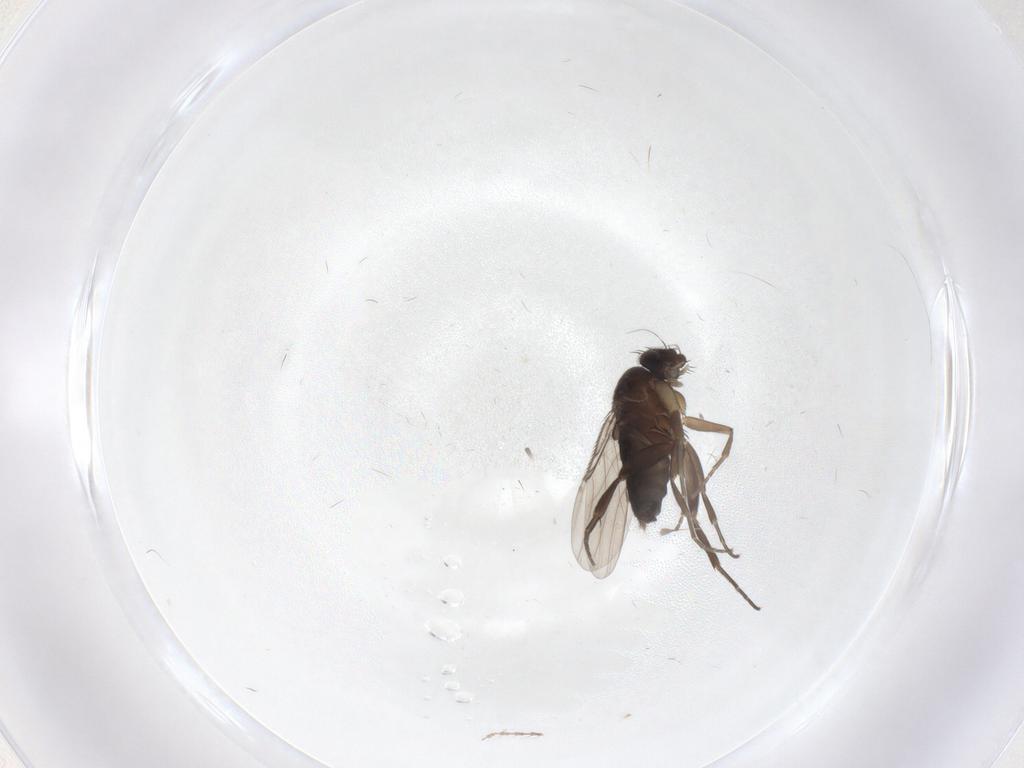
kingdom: Animalia
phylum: Arthropoda
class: Insecta
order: Diptera
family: Phoridae
